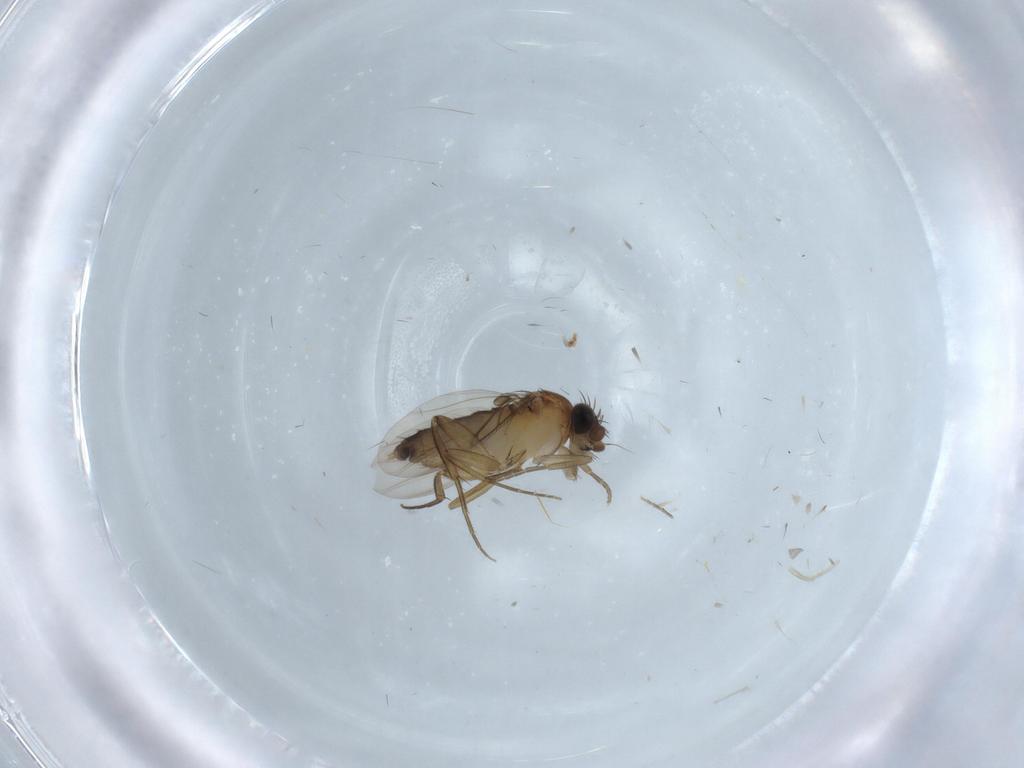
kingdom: Animalia
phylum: Arthropoda
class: Insecta
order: Diptera
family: Phoridae
